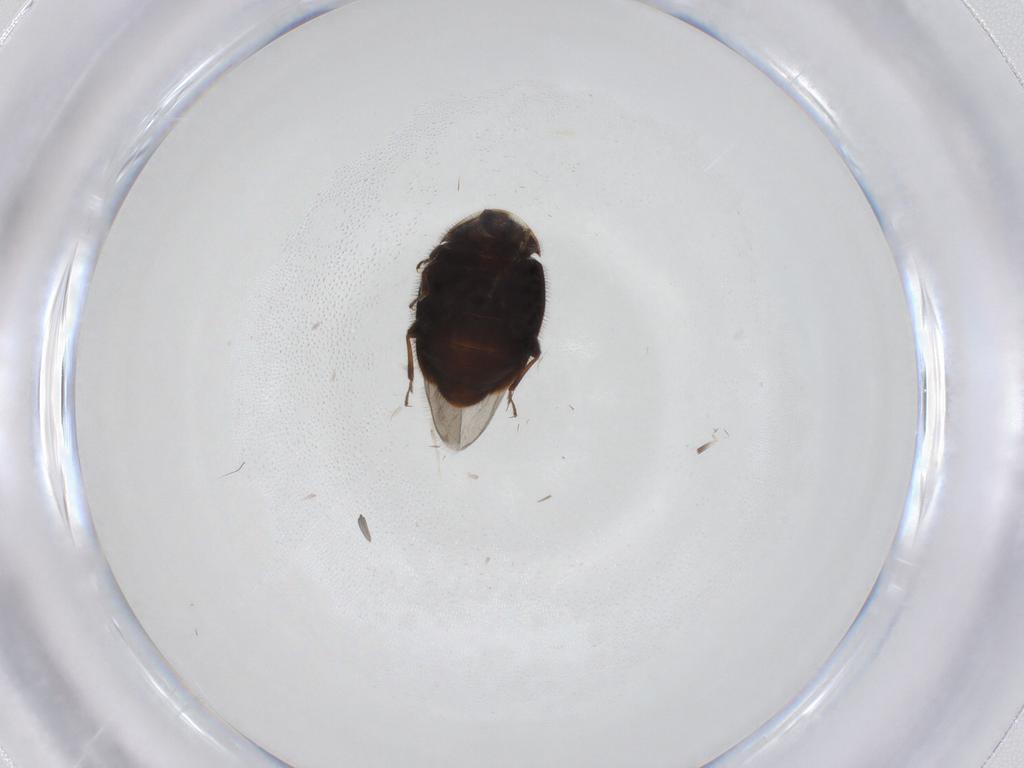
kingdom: Animalia
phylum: Arthropoda
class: Insecta
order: Coleoptera
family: Corylophidae
